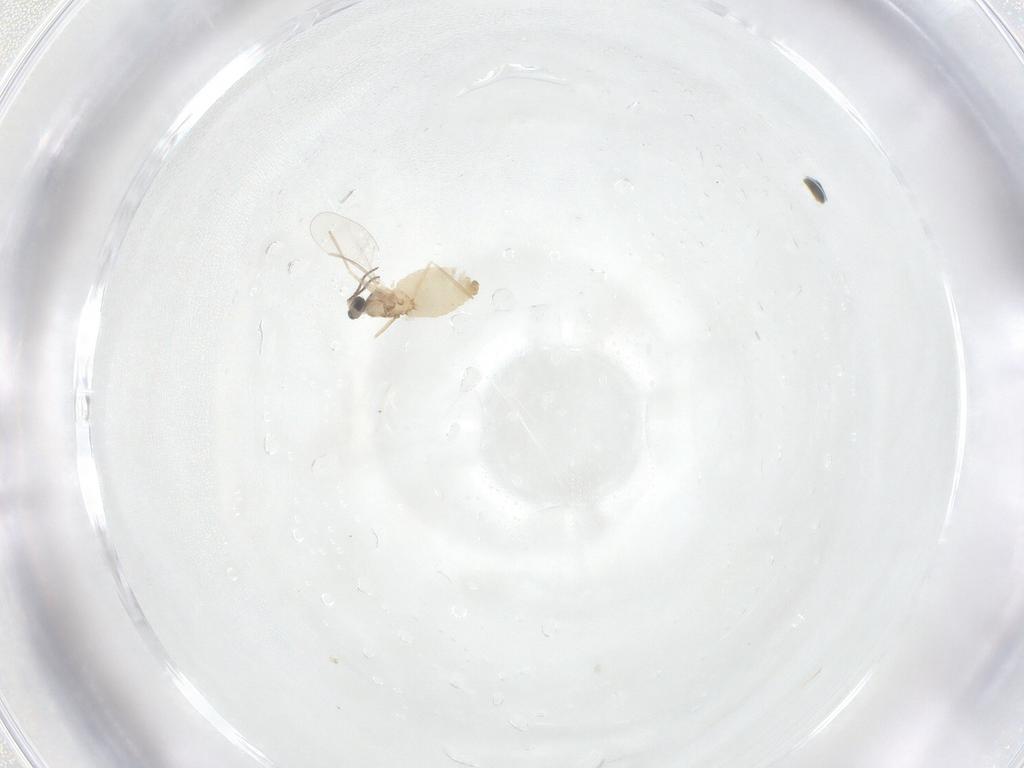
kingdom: Animalia
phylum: Arthropoda
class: Insecta
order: Diptera
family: Cecidomyiidae
